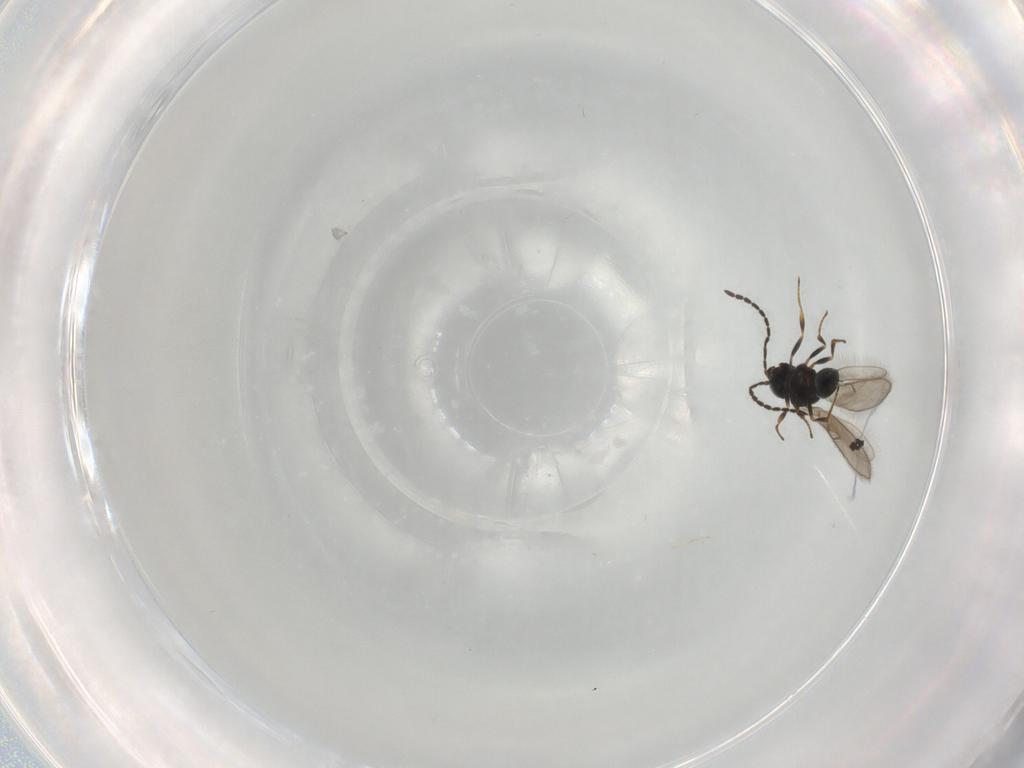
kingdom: Animalia
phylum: Arthropoda
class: Insecta
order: Hymenoptera
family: Scelionidae
